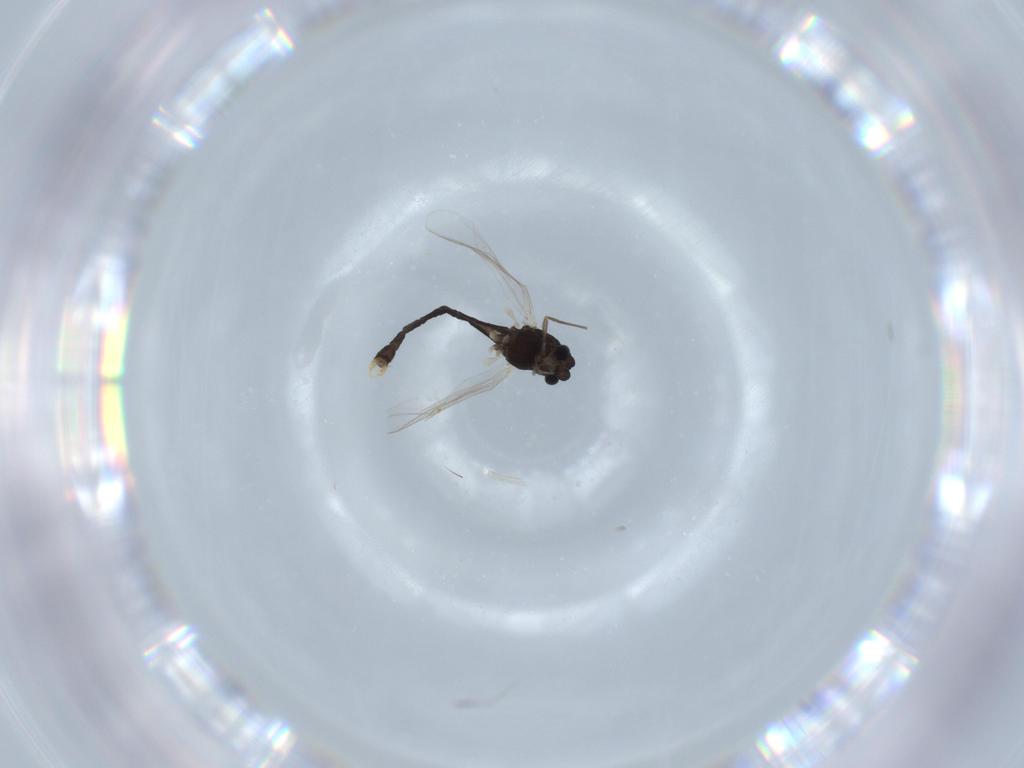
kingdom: Animalia
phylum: Arthropoda
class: Insecta
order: Diptera
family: Chironomidae
